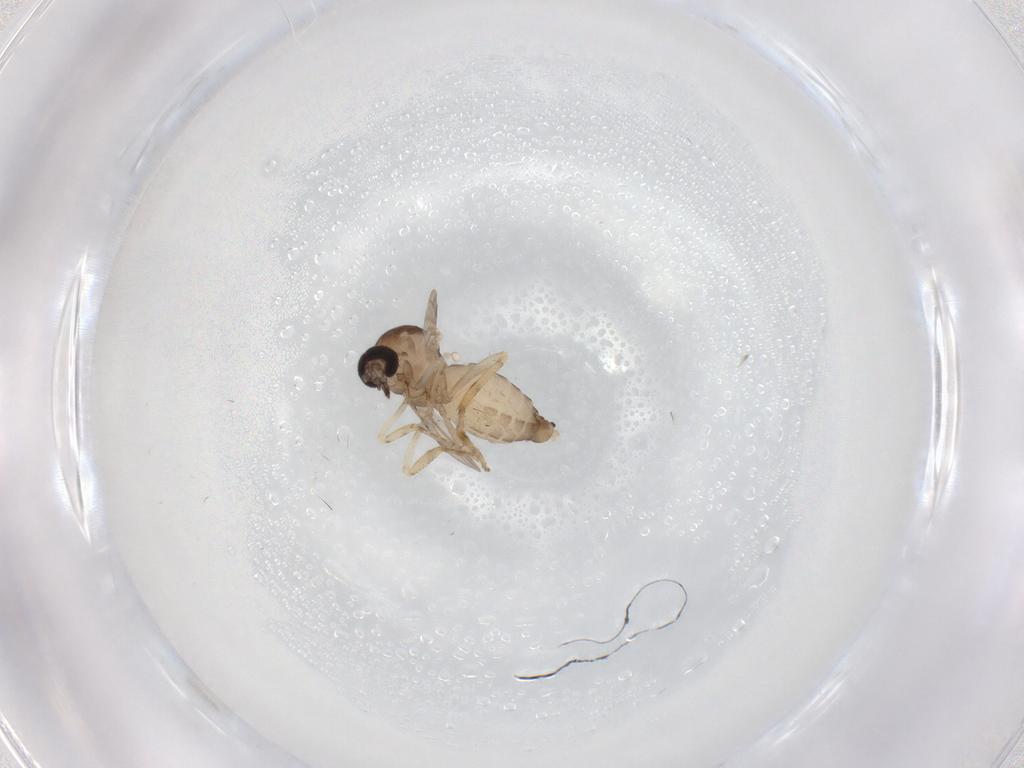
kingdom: Animalia
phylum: Arthropoda
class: Insecta
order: Diptera
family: Ceratopogonidae
